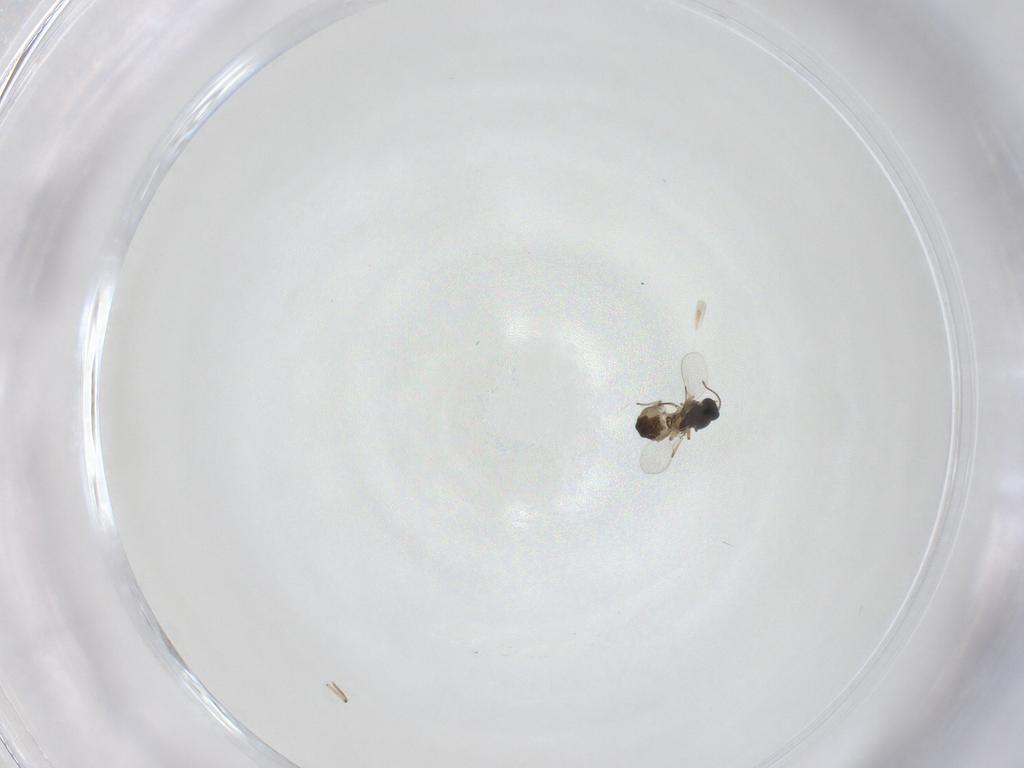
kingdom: Animalia
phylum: Arthropoda
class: Insecta
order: Diptera
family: Ceratopogonidae
